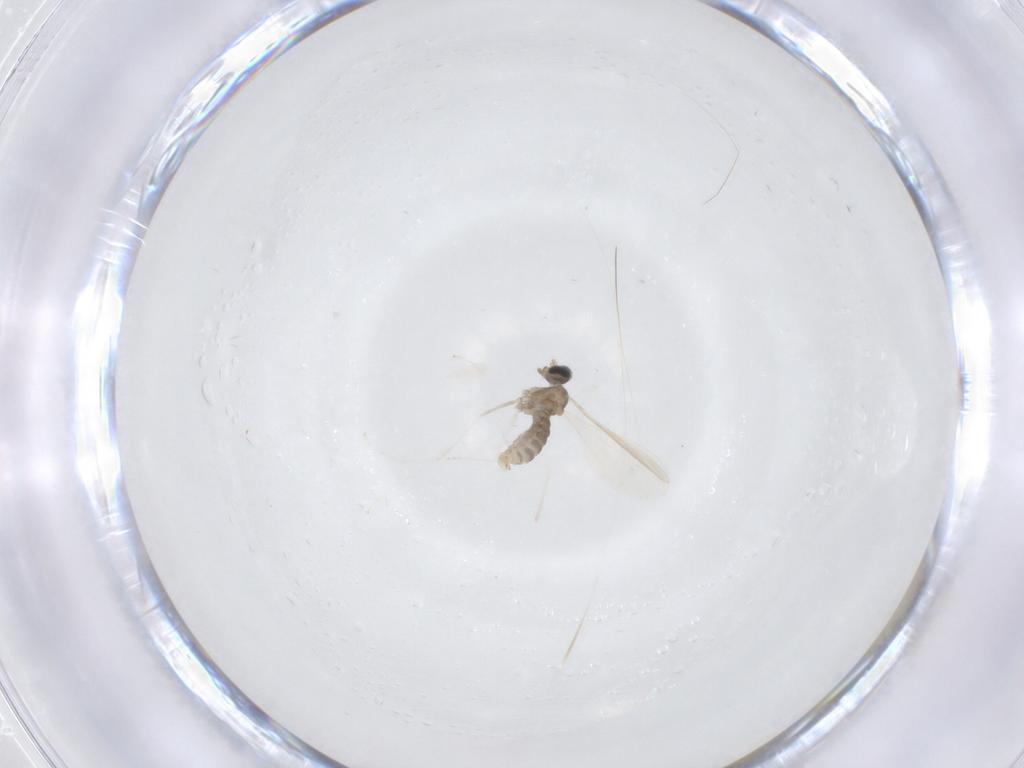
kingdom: Animalia
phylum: Arthropoda
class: Insecta
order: Diptera
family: Cecidomyiidae
